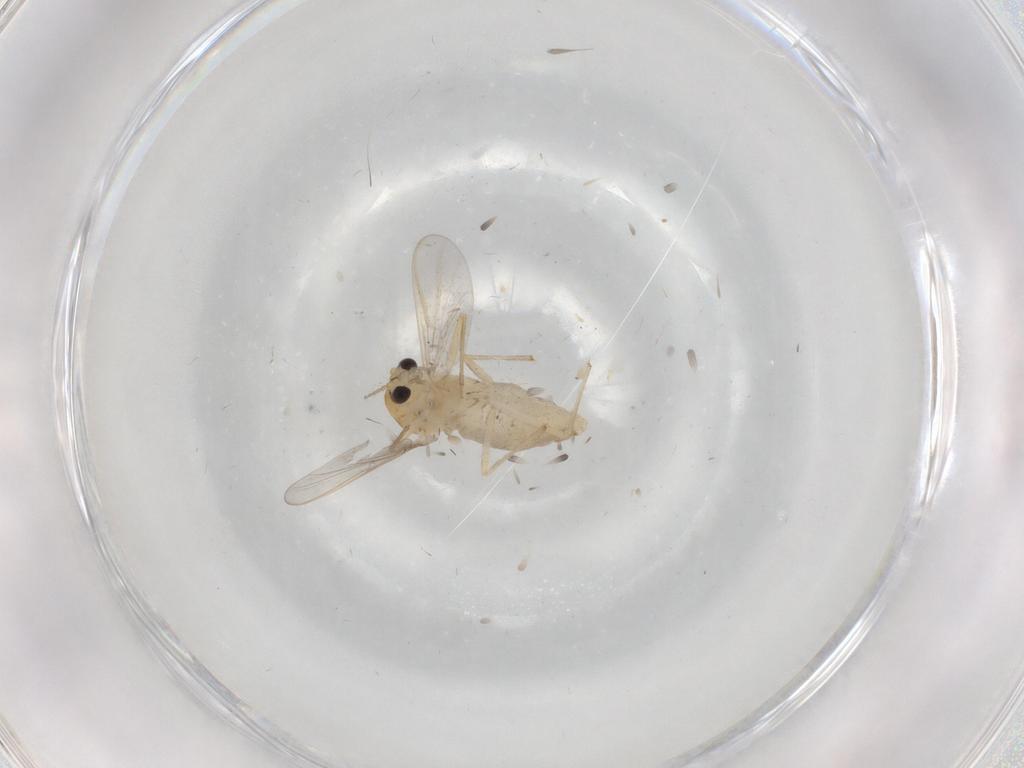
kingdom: Animalia
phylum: Arthropoda
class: Insecta
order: Diptera
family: Chironomidae
